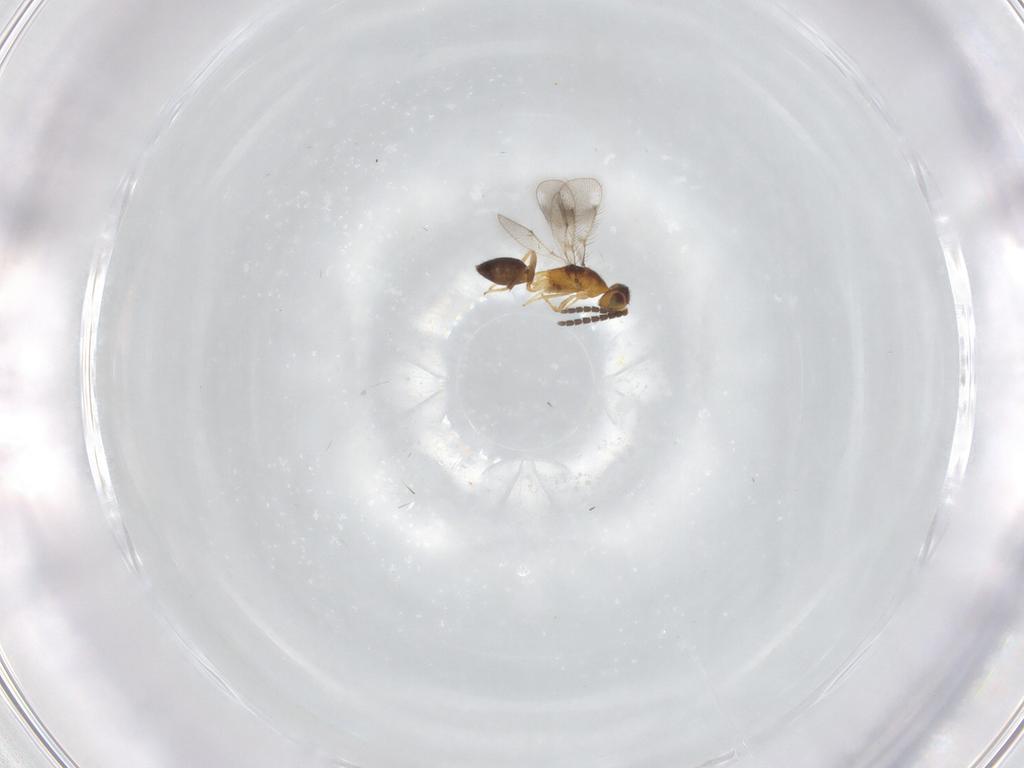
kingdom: Animalia
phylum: Arthropoda
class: Insecta
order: Hymenoptera
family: Pteromalidae
